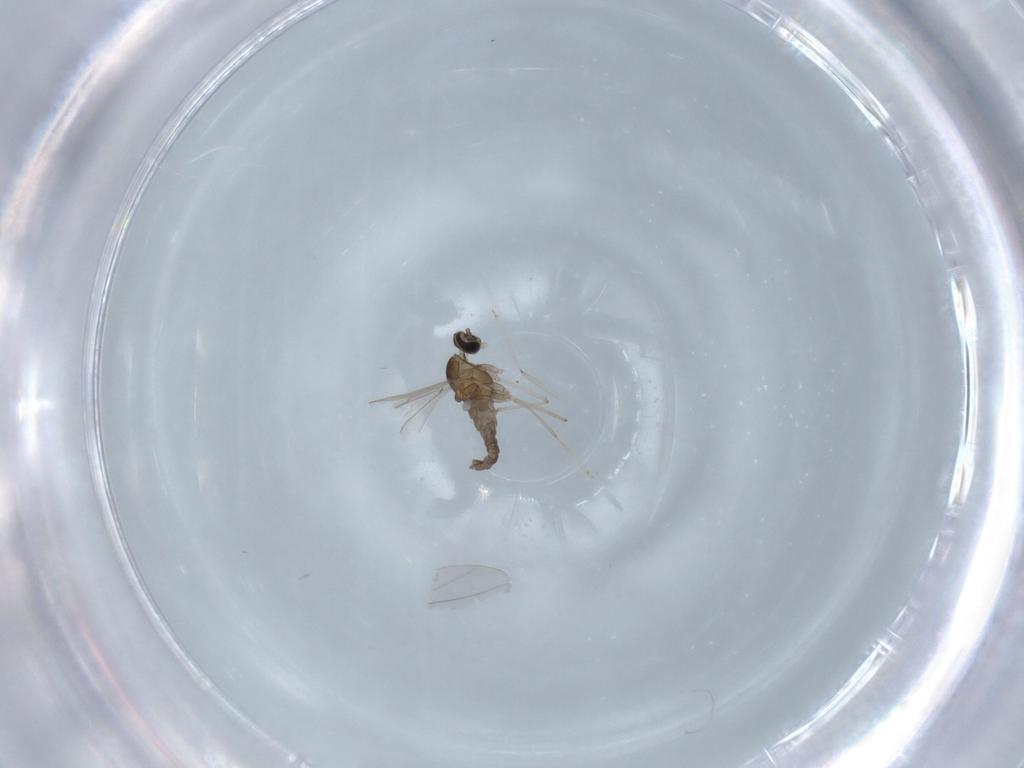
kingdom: Animalia
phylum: Arthropoda
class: Insecta
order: Diptera
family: Cecidomyiidae
